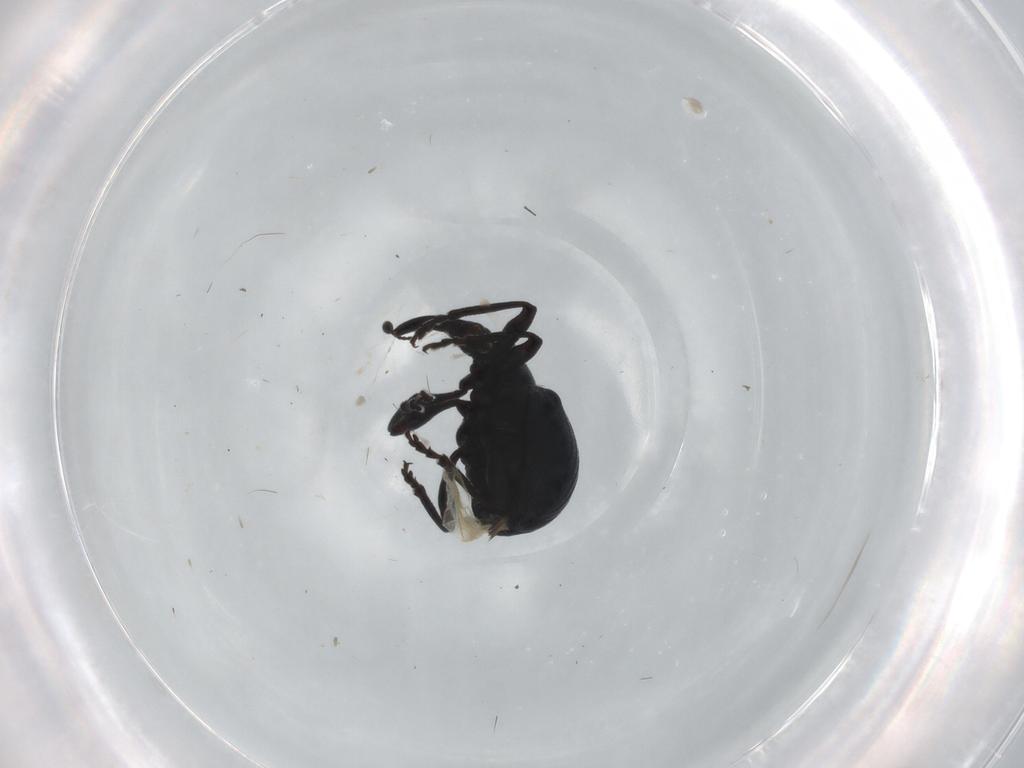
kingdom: Animalia
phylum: Arthropoda
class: Insecta
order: Coleoptera
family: Brentidae
